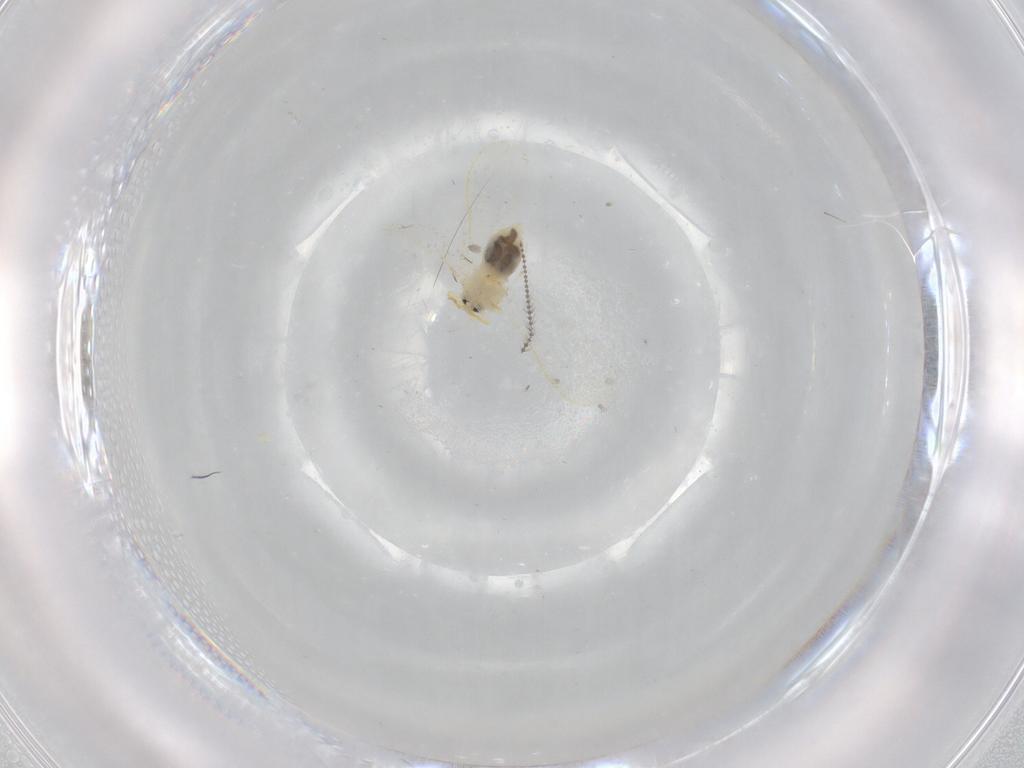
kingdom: Animalia
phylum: Arthropoda
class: Insecta
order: Hemiptera
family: Aleyrodidae
